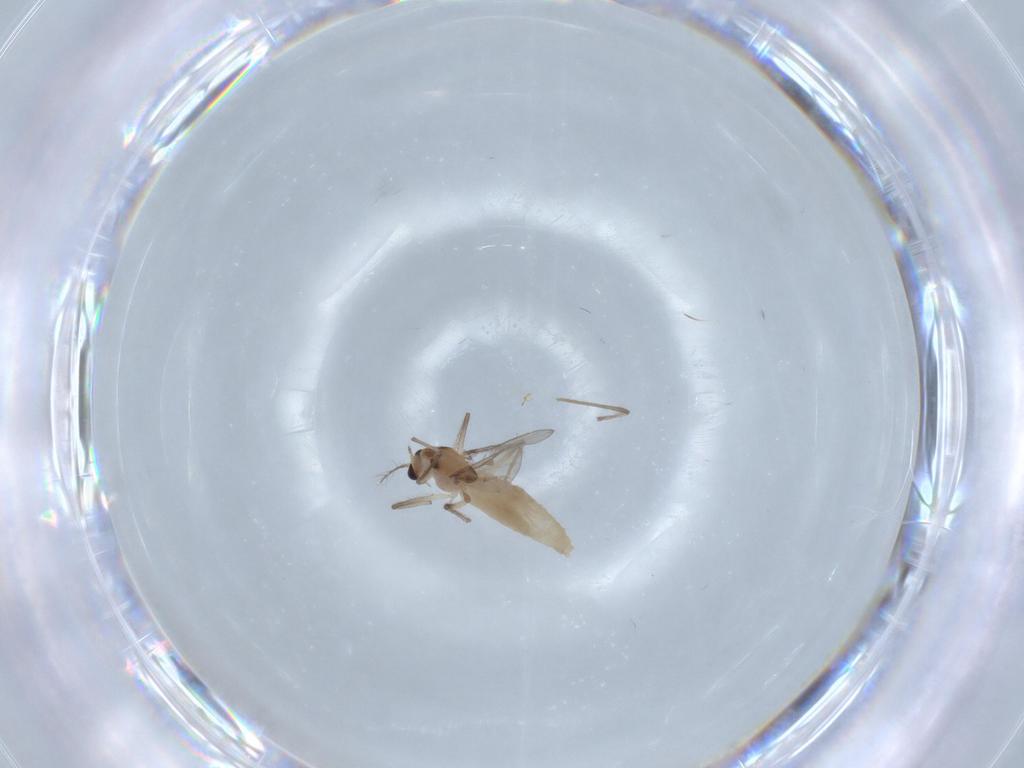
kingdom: Animalia
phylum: Arthropoda
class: Insecta
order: Diptera
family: Chironomidae
